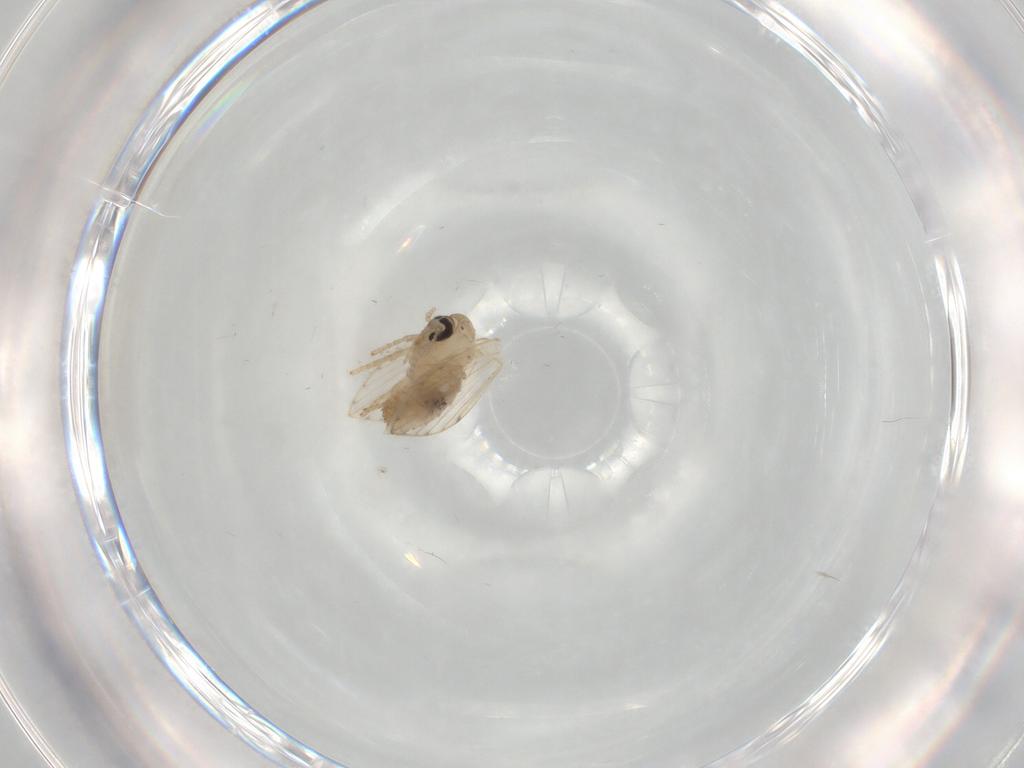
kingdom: Animalia
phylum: Arthropoda
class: Insecta
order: Diptera
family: Psychodidae
